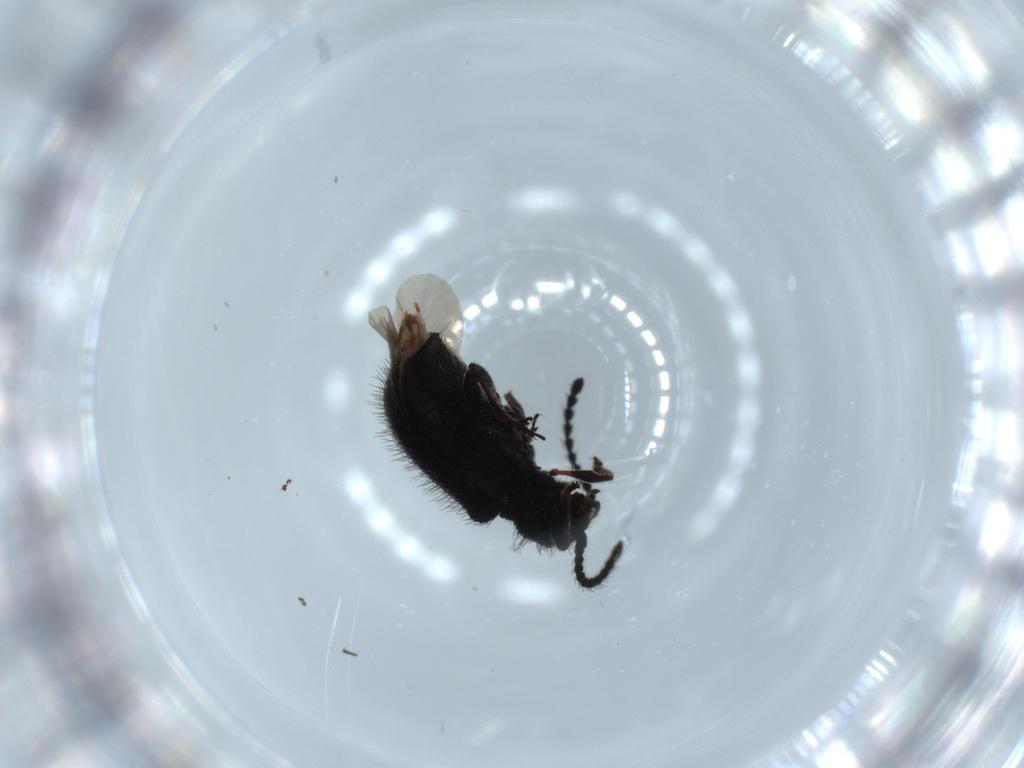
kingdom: Animalia
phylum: Arthropoda
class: Insecta
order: Coleoptera
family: Ptinidae
